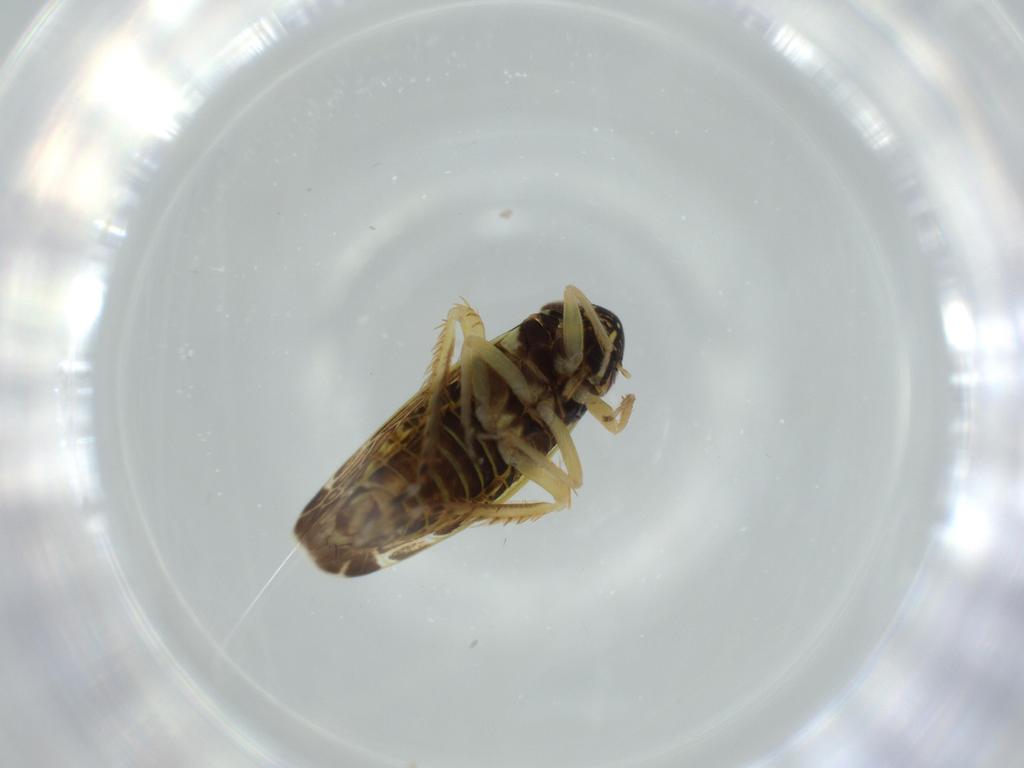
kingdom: Animalia
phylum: Arthropoda
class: Insecta
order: Hemiptera
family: Cicadellidae
